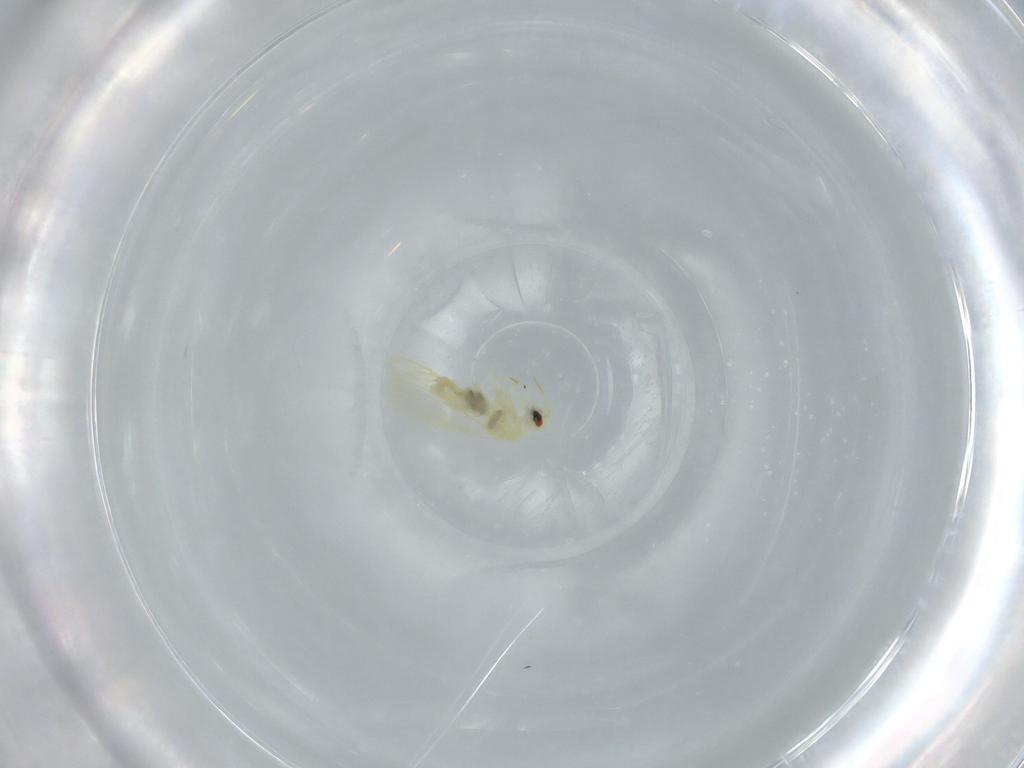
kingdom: Animalia
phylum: Arthropoda
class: Insecta
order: Hemiptera
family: Aleyrodidae
